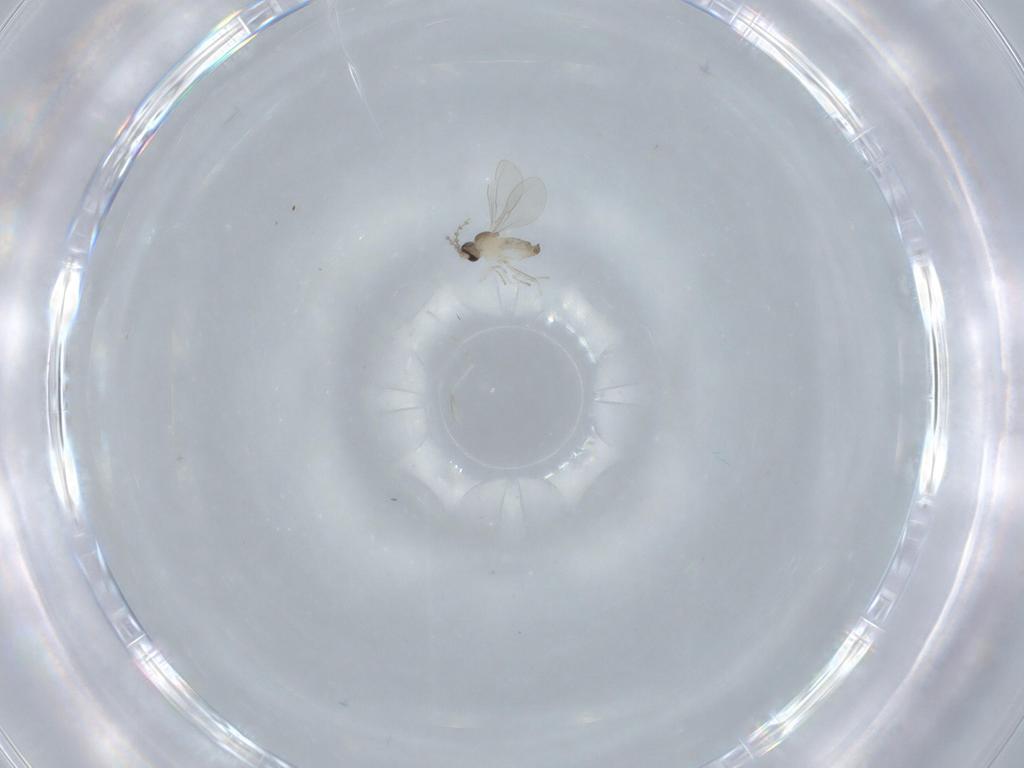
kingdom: Animalia
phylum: Arthropoda
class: Insecta
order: Diptera
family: Cecidomyiidae
